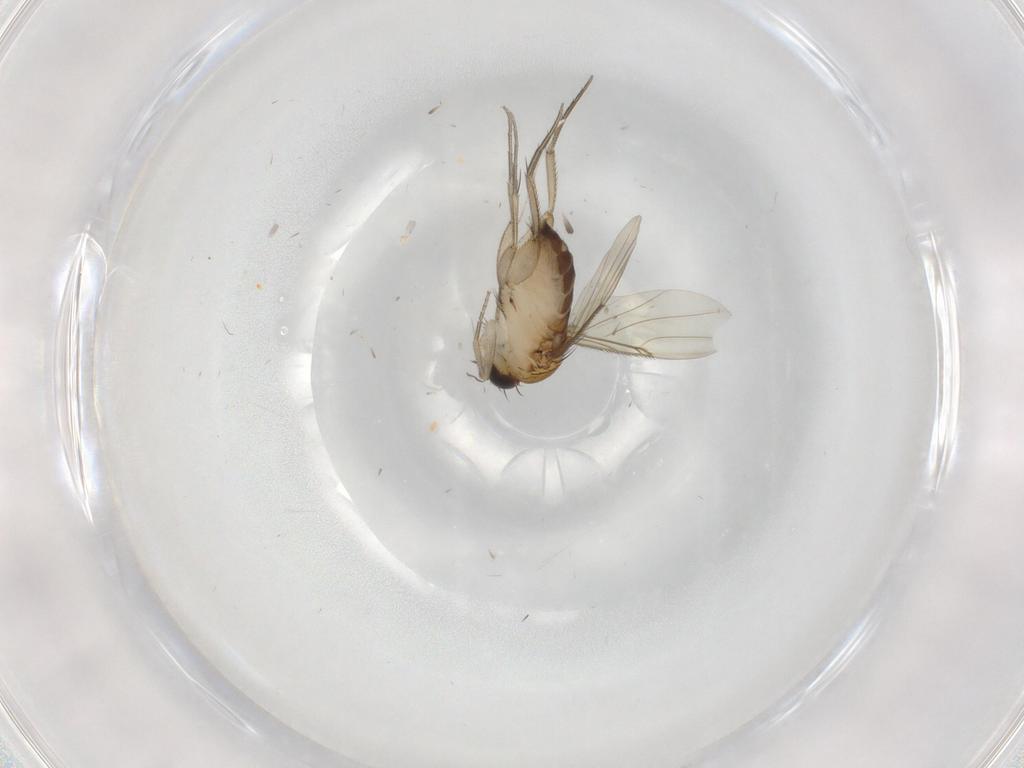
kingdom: Animalia
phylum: Arthropoda
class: Insecta
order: Diptera
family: Phoridae
